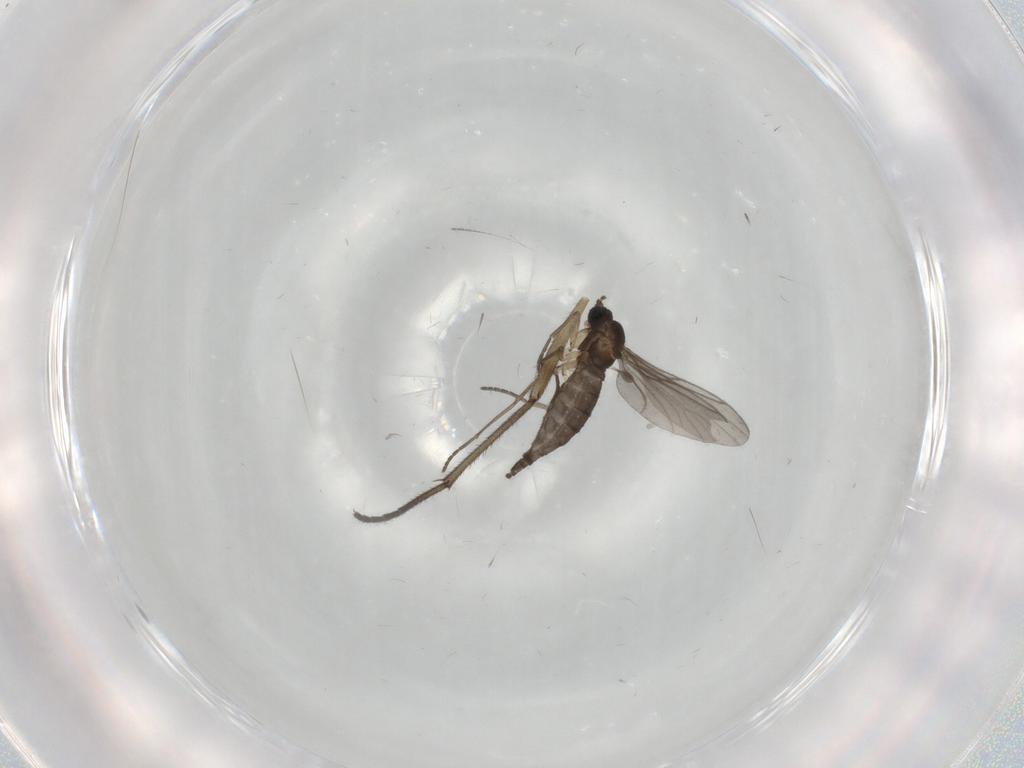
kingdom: Animalia
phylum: Arthropoda
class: Insecta
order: Diptera
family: Sciaridae
